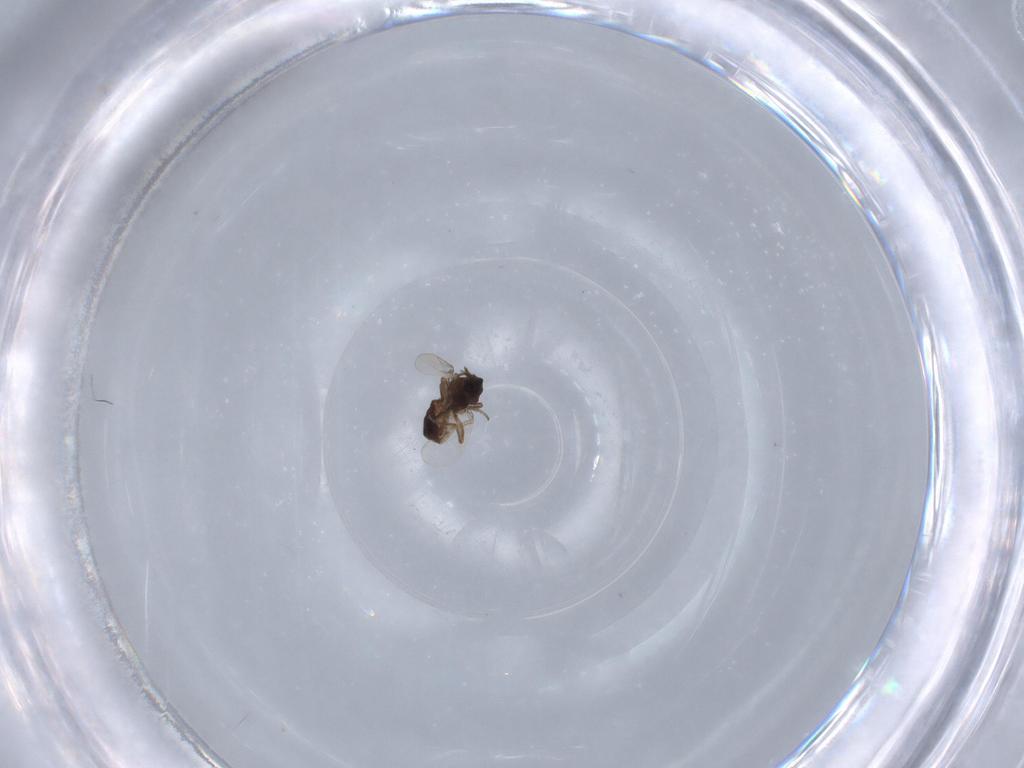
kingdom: Animalia
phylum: Arthropoda
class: Insecta
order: Diptera
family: Ceratopogonidae
